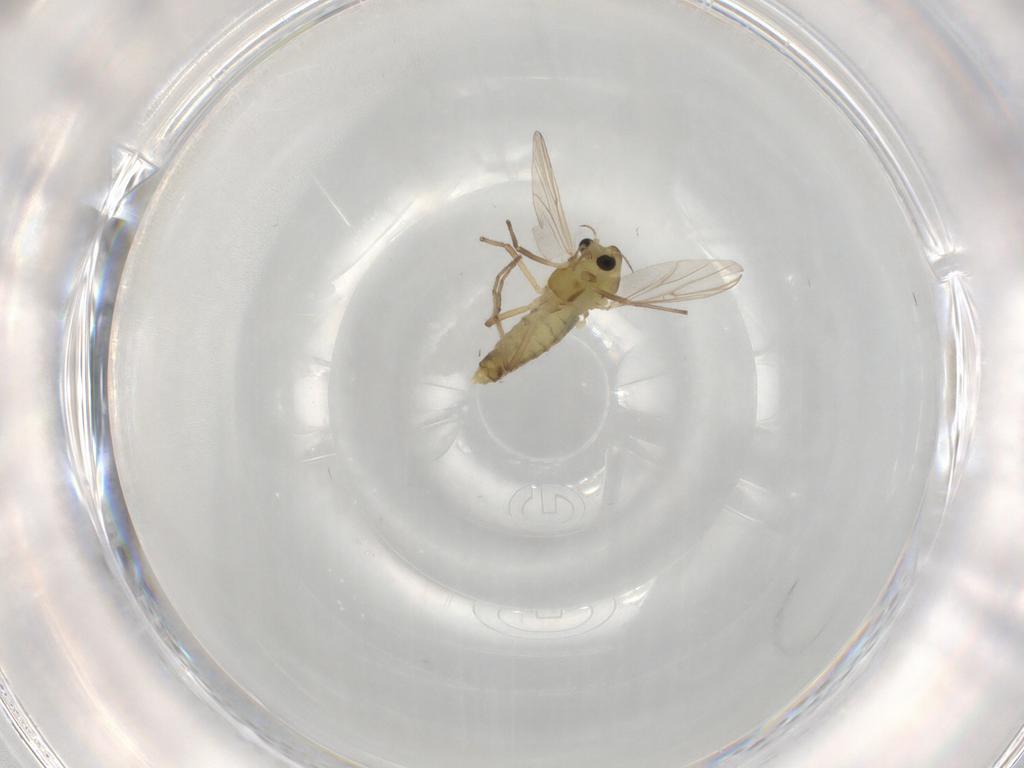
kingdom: Animalia
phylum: Arthropoda
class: Insecta
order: Diptera
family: Chironomidae
